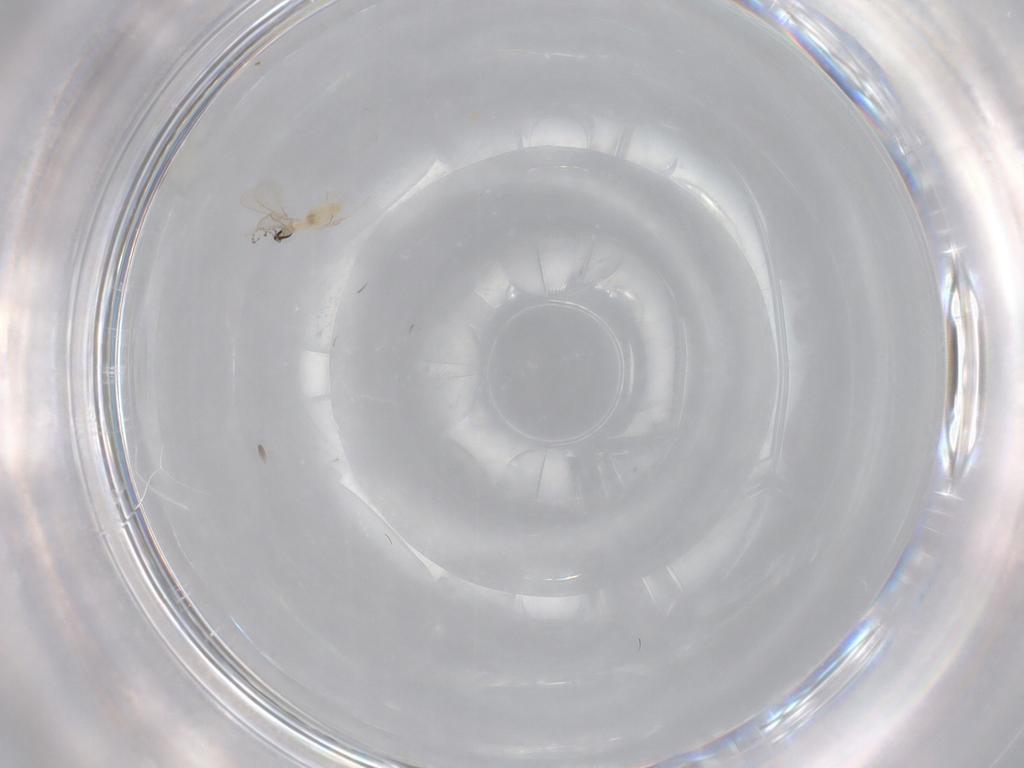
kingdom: Animalia
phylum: Arthropoda
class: Insecta
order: Diptera
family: Cecidomyiidae
